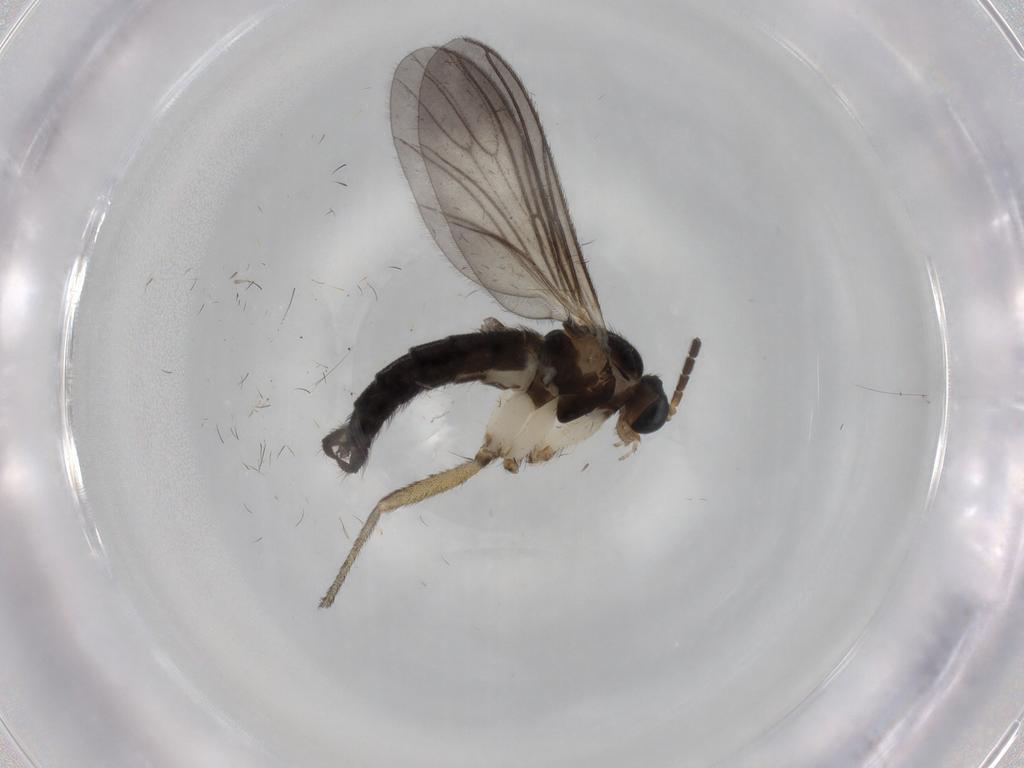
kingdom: Animalia
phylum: Arthropoda
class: Insecta
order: Diptera
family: Sciaridae
